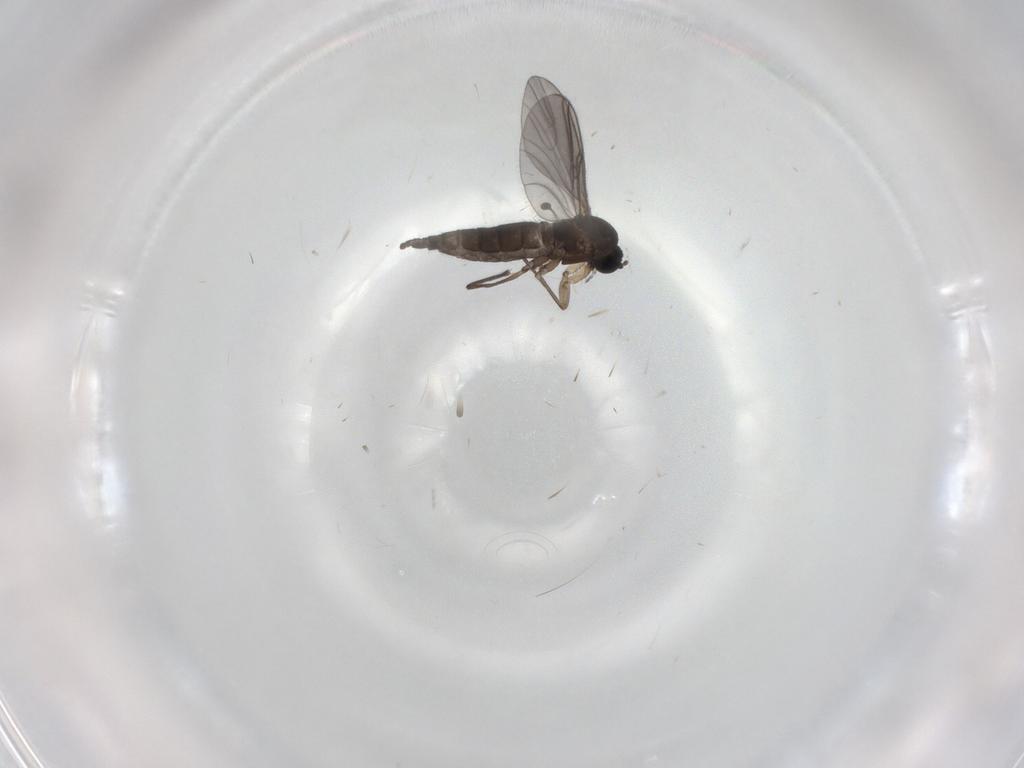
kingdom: Animalia
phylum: Arthropoda
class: Insecta
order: Diptera
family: Sciaridae
